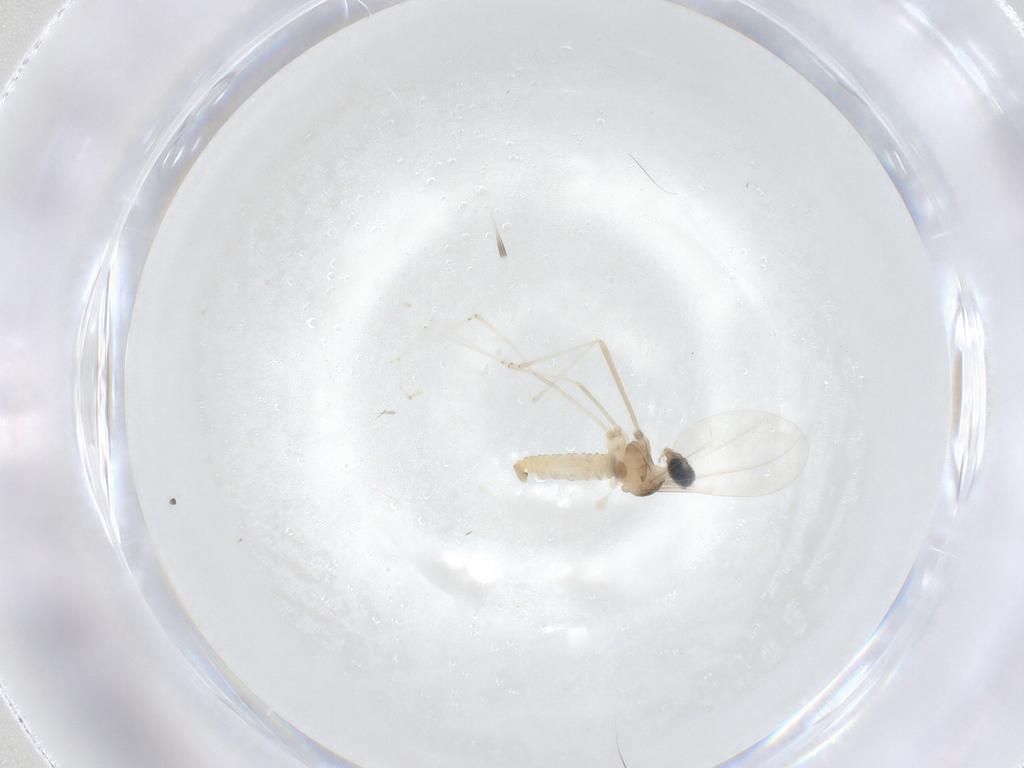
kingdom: Animalia
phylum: Arthropoda
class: Insecta
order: Diptera
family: Cecidomyiidae
